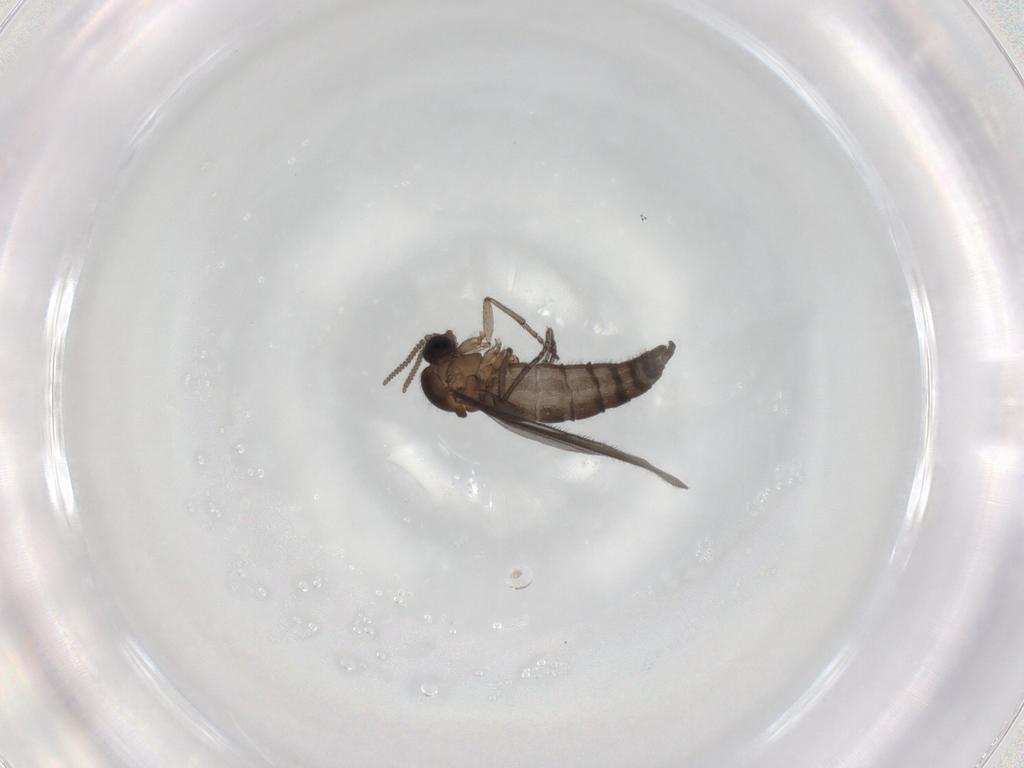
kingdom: Animalia
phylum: Arthropoda
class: Insecta
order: Diptera
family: Sciaridae
